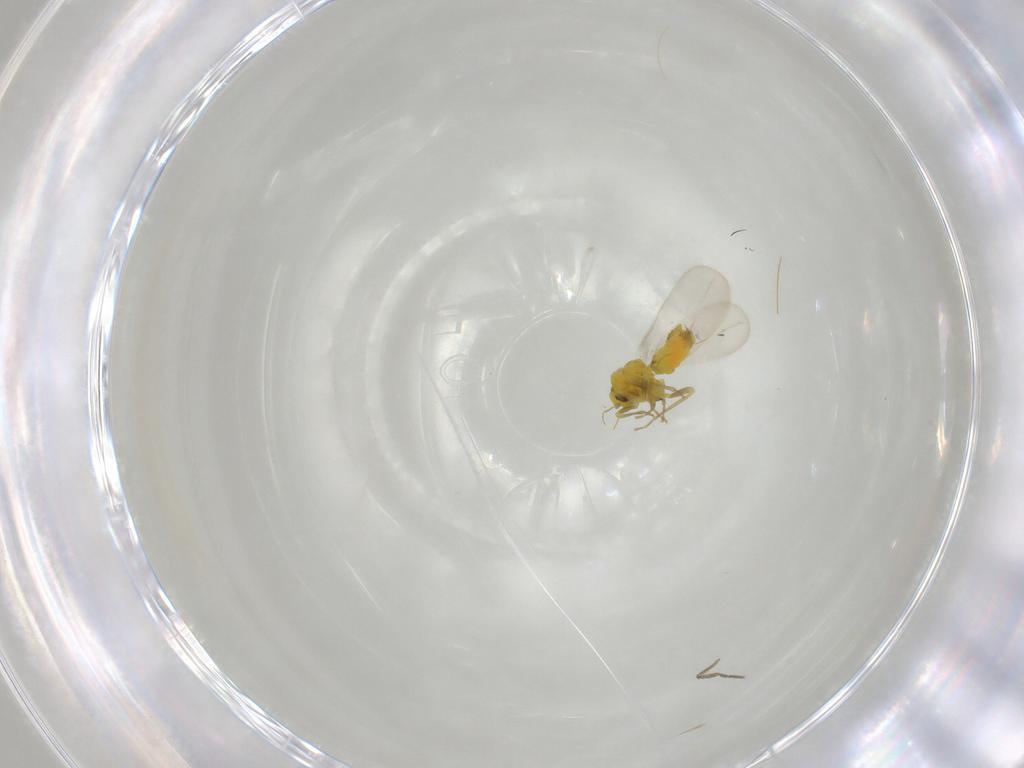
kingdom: Animalia
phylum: Arthropoda
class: Insecta
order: Hemiptera
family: Aleyrodidae
